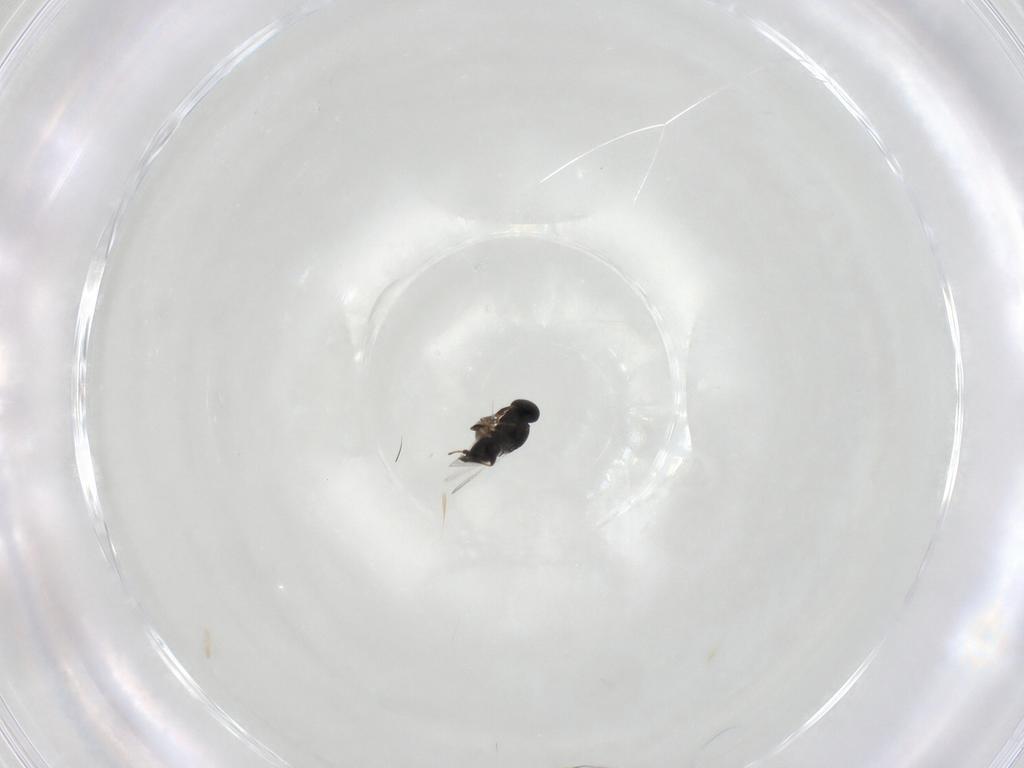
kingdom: Animalia
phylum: Arthropoda
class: Insecta
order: Hymenoptera
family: Platygastridae
